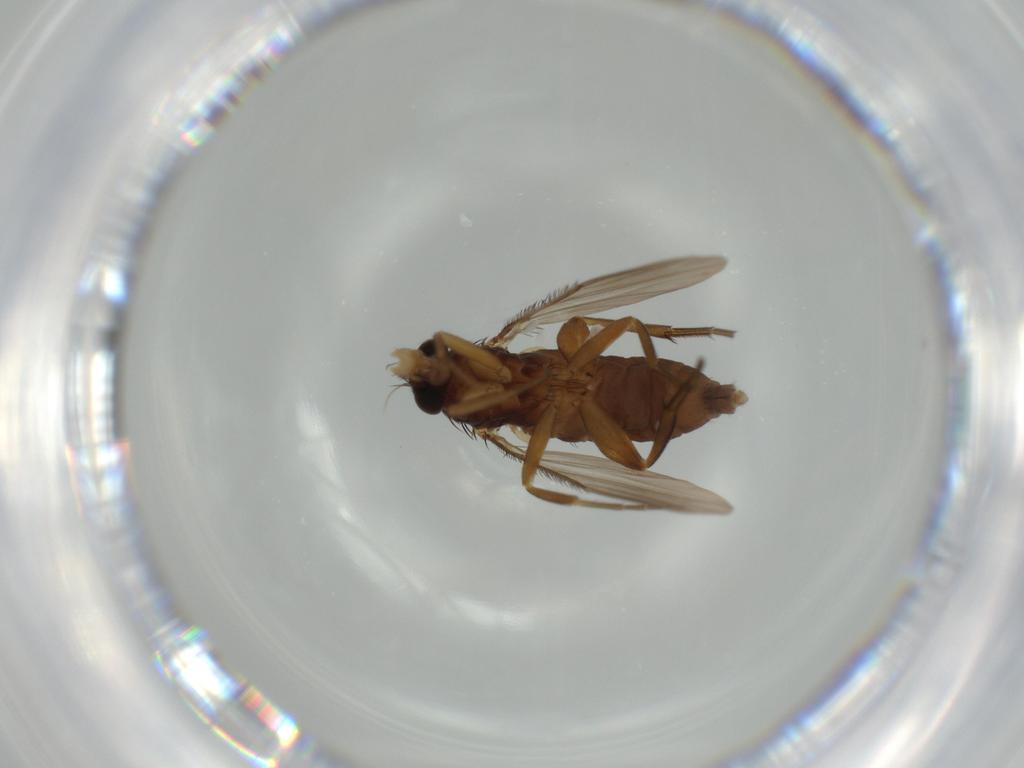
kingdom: Animalia
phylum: Arthropoda
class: Insecta
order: Diptera
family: Phoridae
